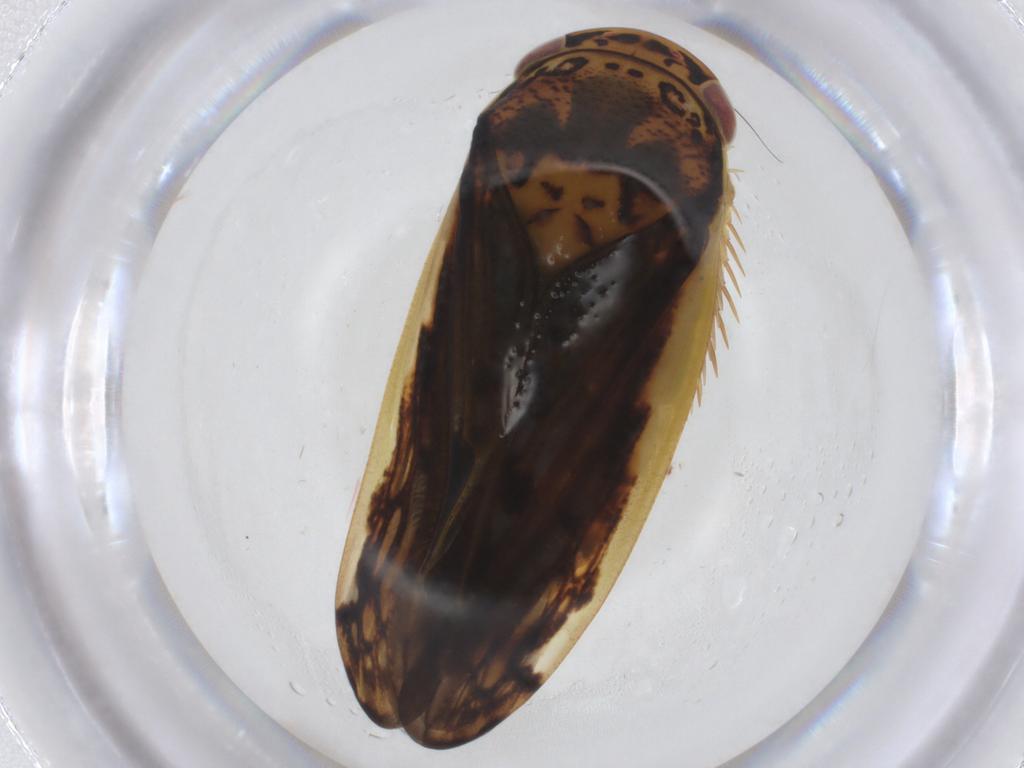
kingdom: Animalia
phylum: Arthropoda
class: Insecta
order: Hemiptera
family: Cicadellidae
